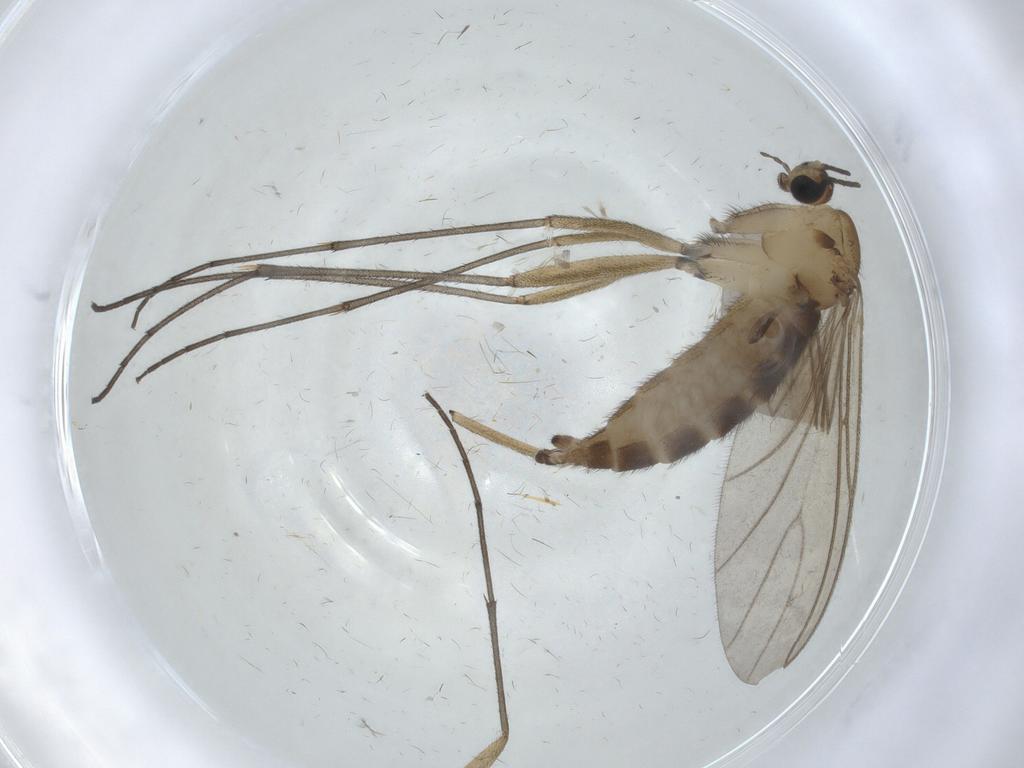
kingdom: Animalia
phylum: Arthropoda
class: Insecta
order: Diptera
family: Sciaridae
